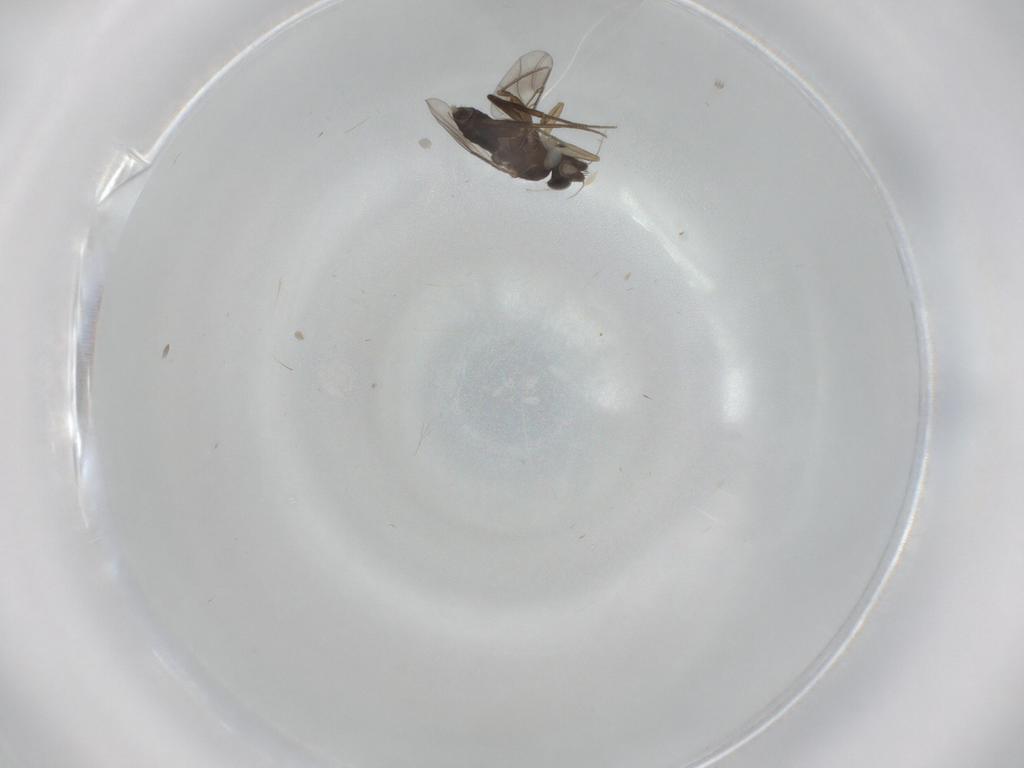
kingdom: Animalia
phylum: Arthropoda
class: Insecta
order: Diptera
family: Phoridae
